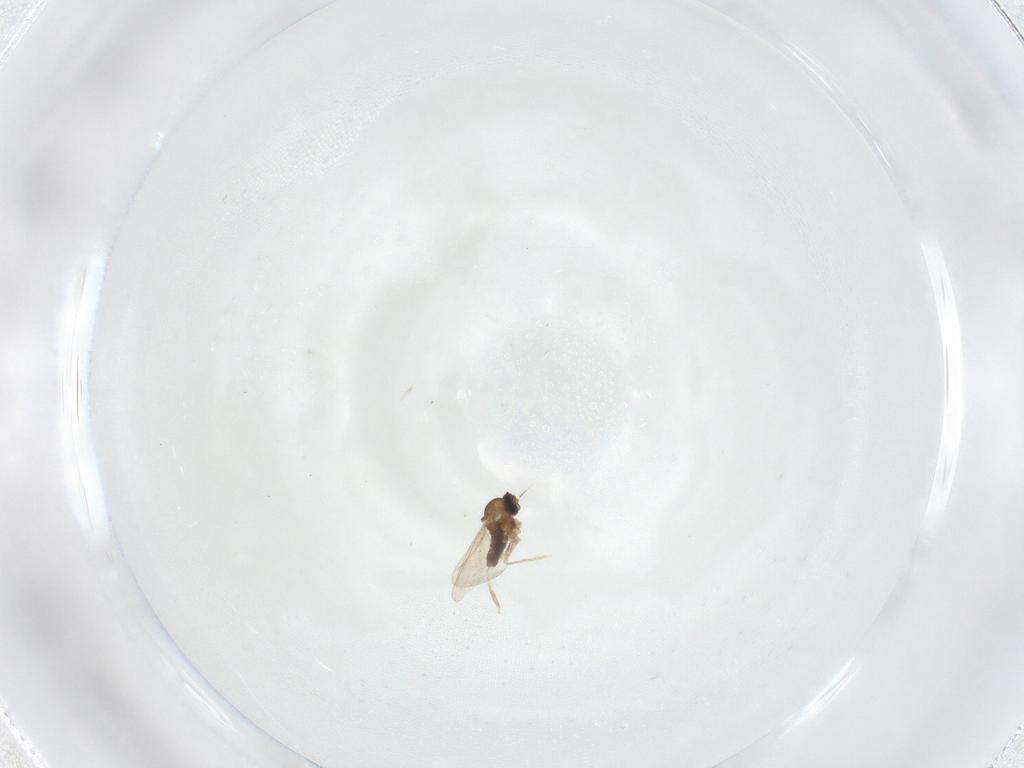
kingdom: Animalia
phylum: Arthropoda
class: Insecta
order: Diptera
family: Cecidomyiidae
